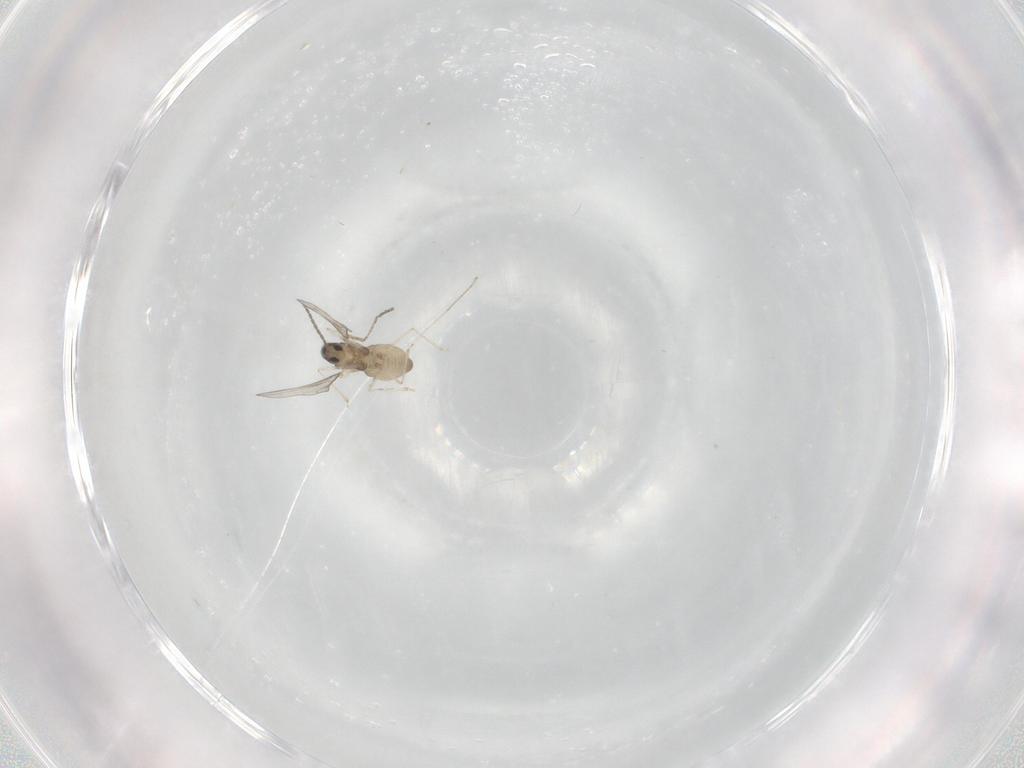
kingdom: Animalia
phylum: Arthropoda
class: Insecta
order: Diptera
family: Cecidomyiidae
